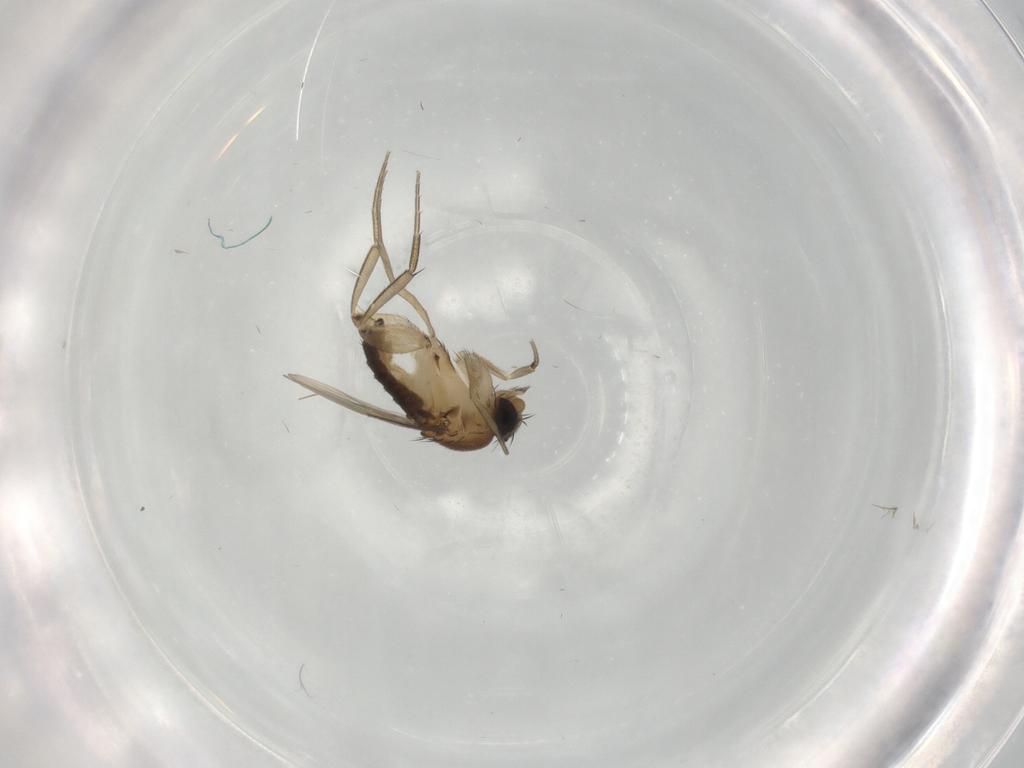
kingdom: Animalia
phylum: Arthropoda
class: Insecta
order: Diptera
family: Phoridae
